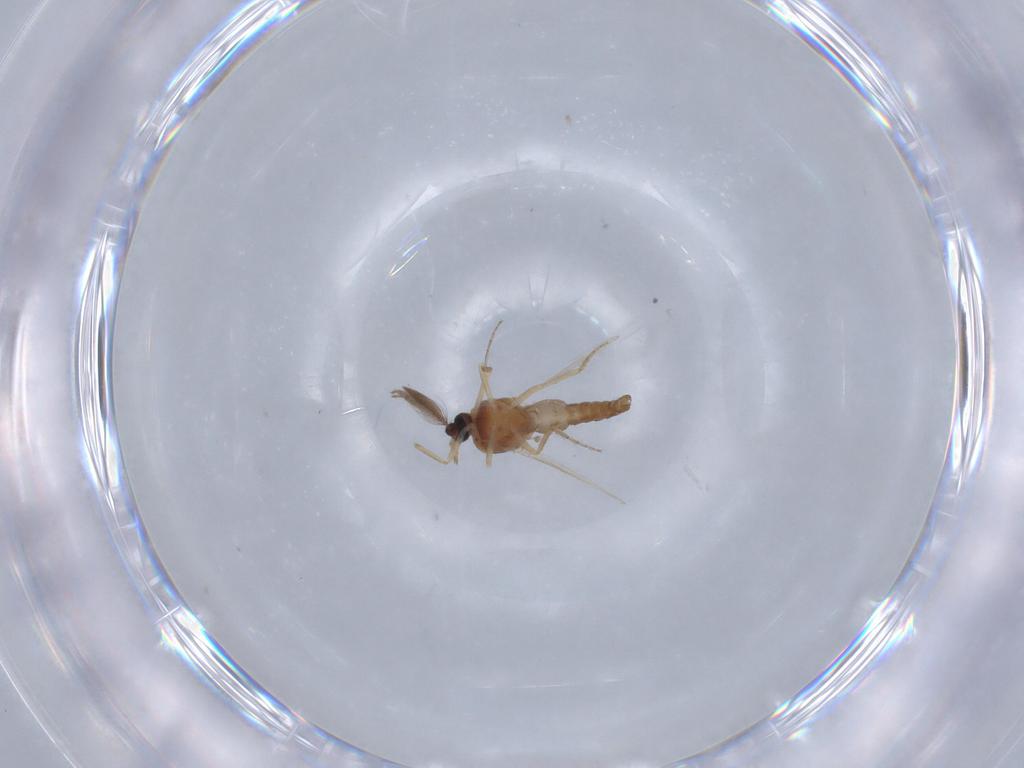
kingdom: Animalia
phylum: Arthropoda
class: Insecta
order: Diptera
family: Ceratopogonidae
